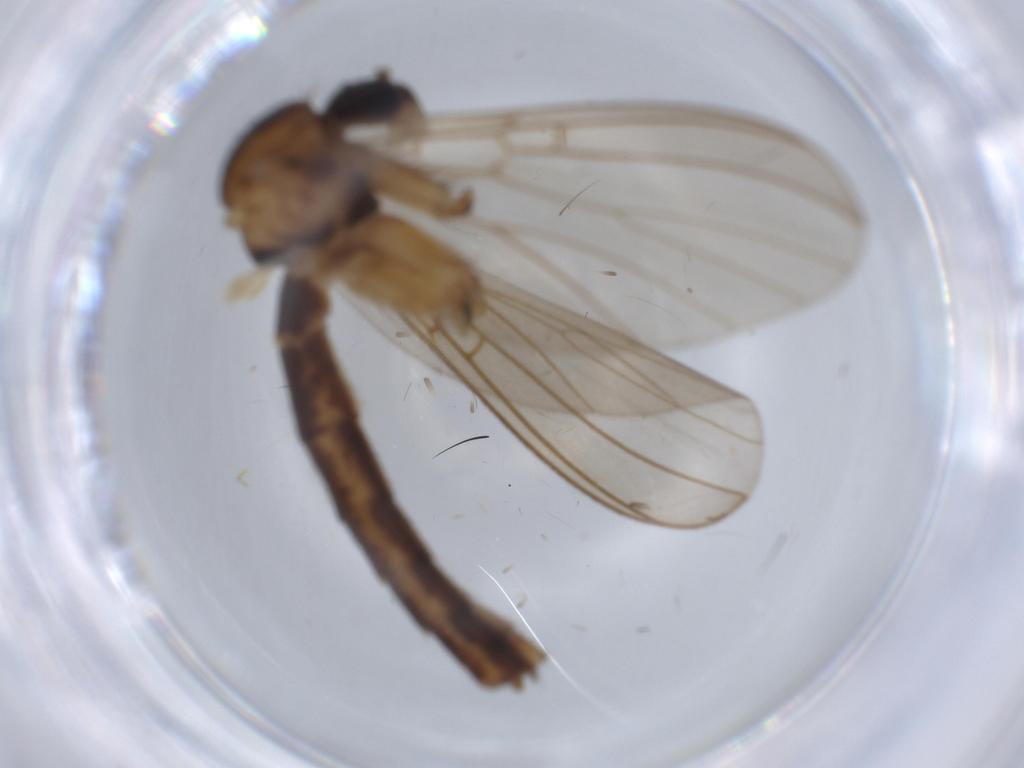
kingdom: Animalia
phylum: Arthropoda
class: Insecta
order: Diptera
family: Mycetophilidae
